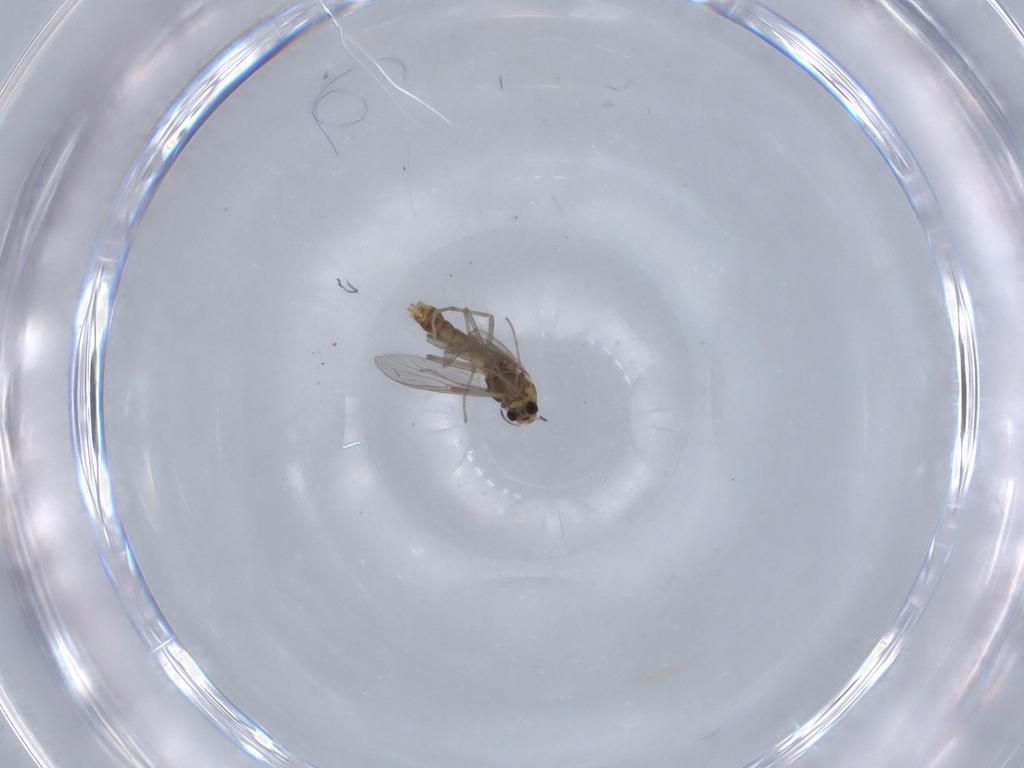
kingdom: Animalia
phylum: Arthropoda
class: Insecta
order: Diptera
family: Chironomidae
